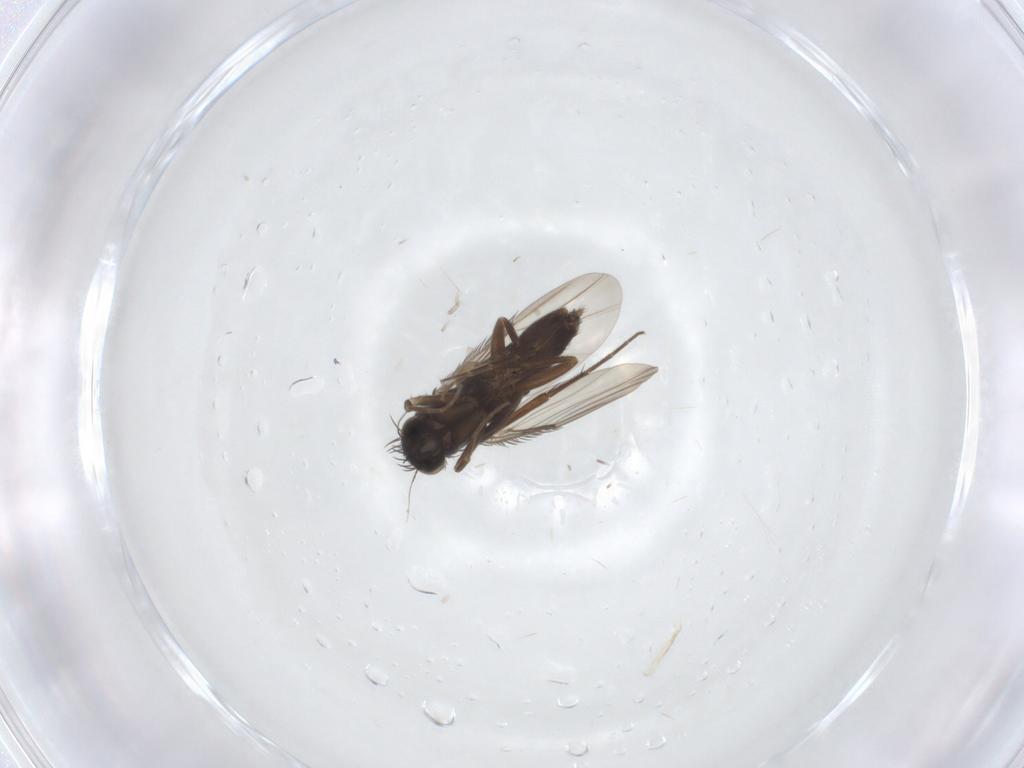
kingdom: Animalia
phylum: Arthropoda
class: Insecta
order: Diptera
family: Phoridae
